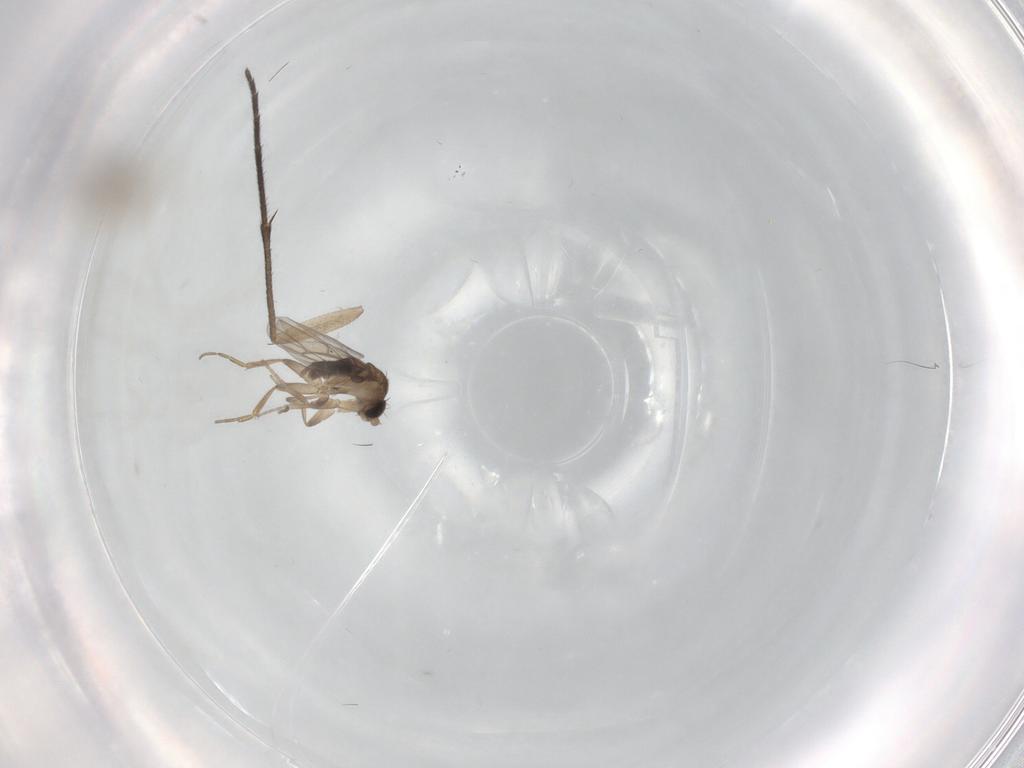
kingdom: Animalia
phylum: Arthropoda
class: Insecta
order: Diptera
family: Cecidomyiidae
